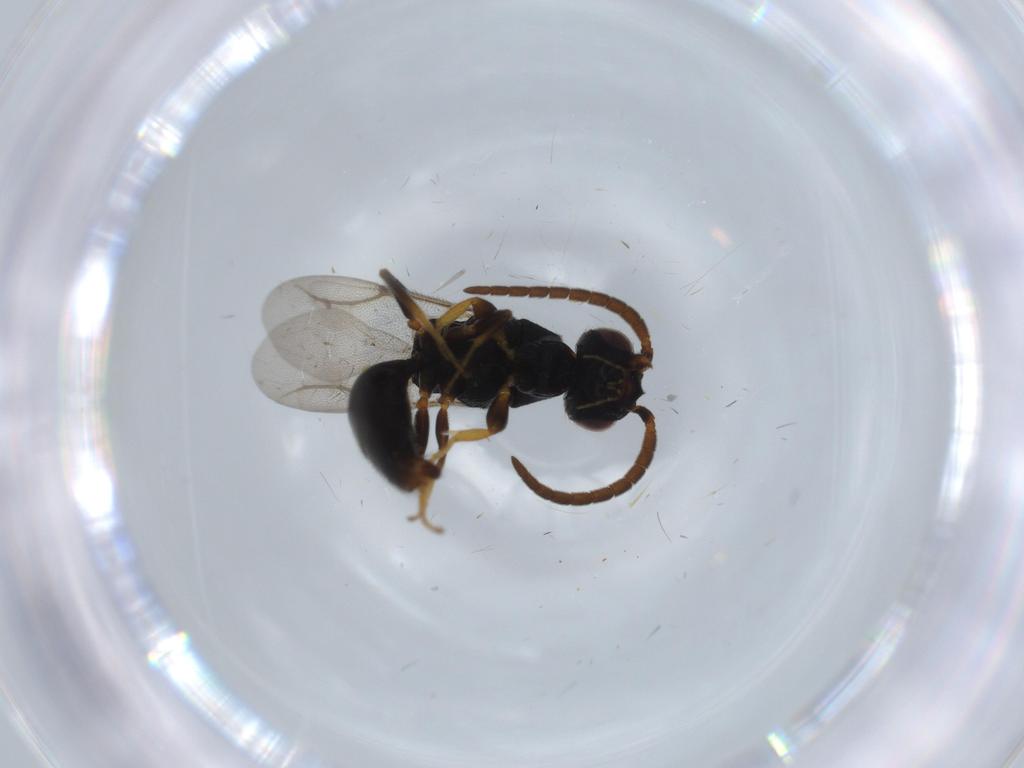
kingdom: Animalia
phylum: Arthropoda
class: Insecta
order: Hymenoptera
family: Bethylidae
